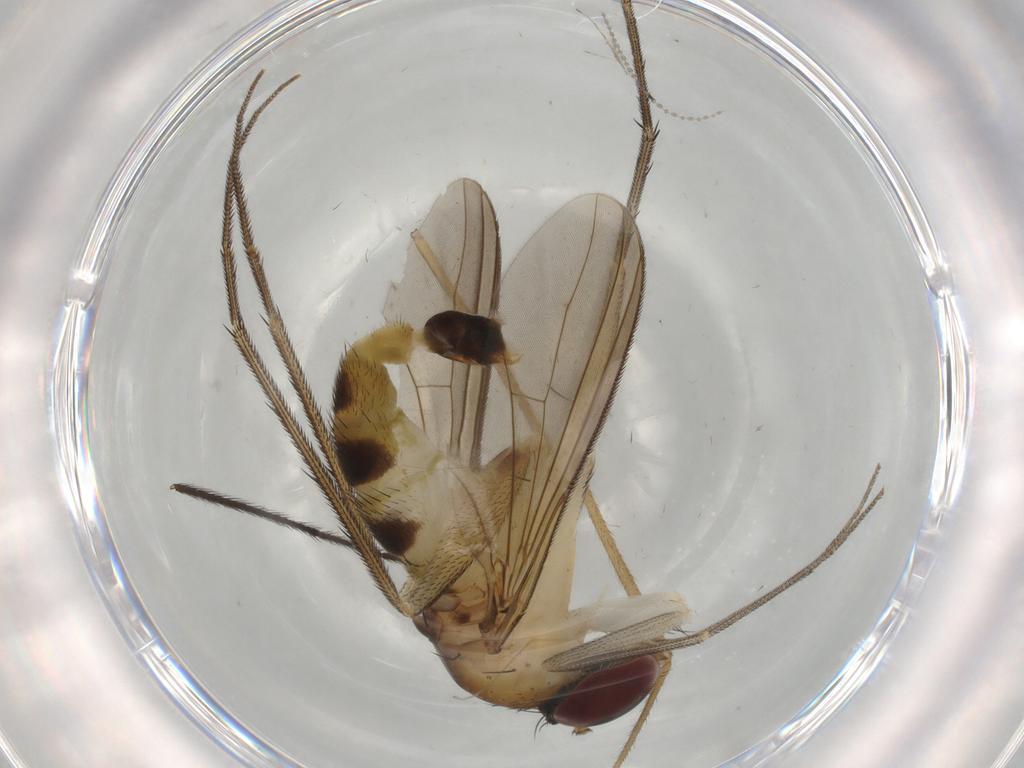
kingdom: Animalia
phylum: Arthropoda
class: Insecta
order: Diptera
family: Dolichopodidae
